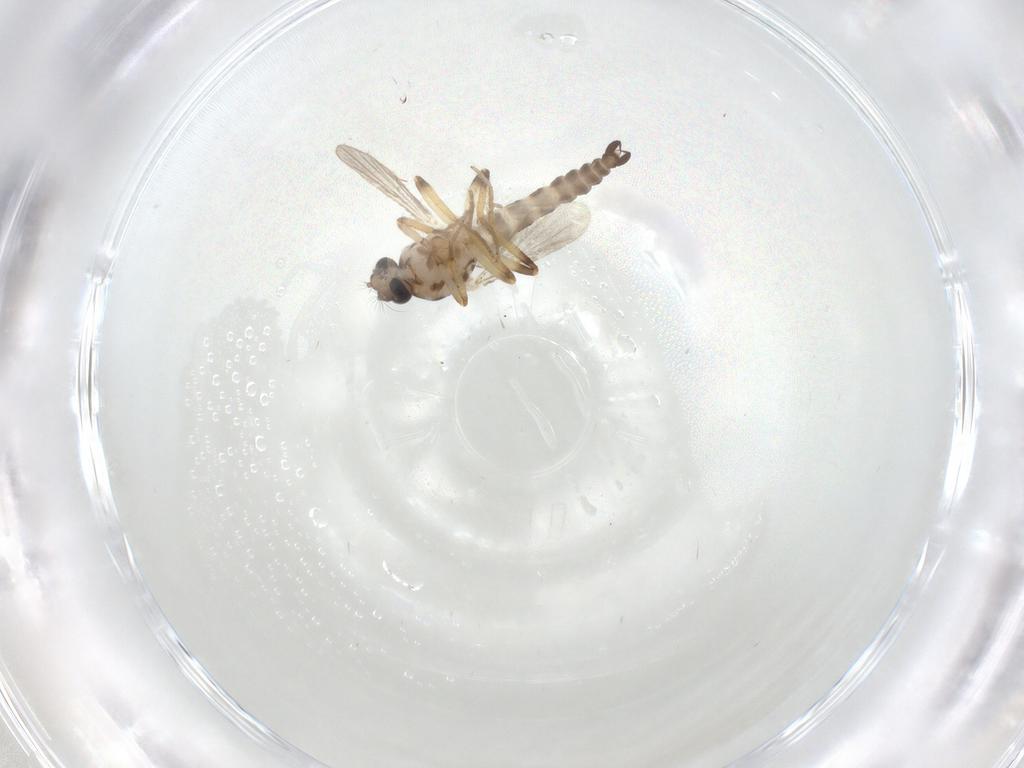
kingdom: Animalia
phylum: Arthropoda
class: Insecta
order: Diptera
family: Ceratopogonidae
